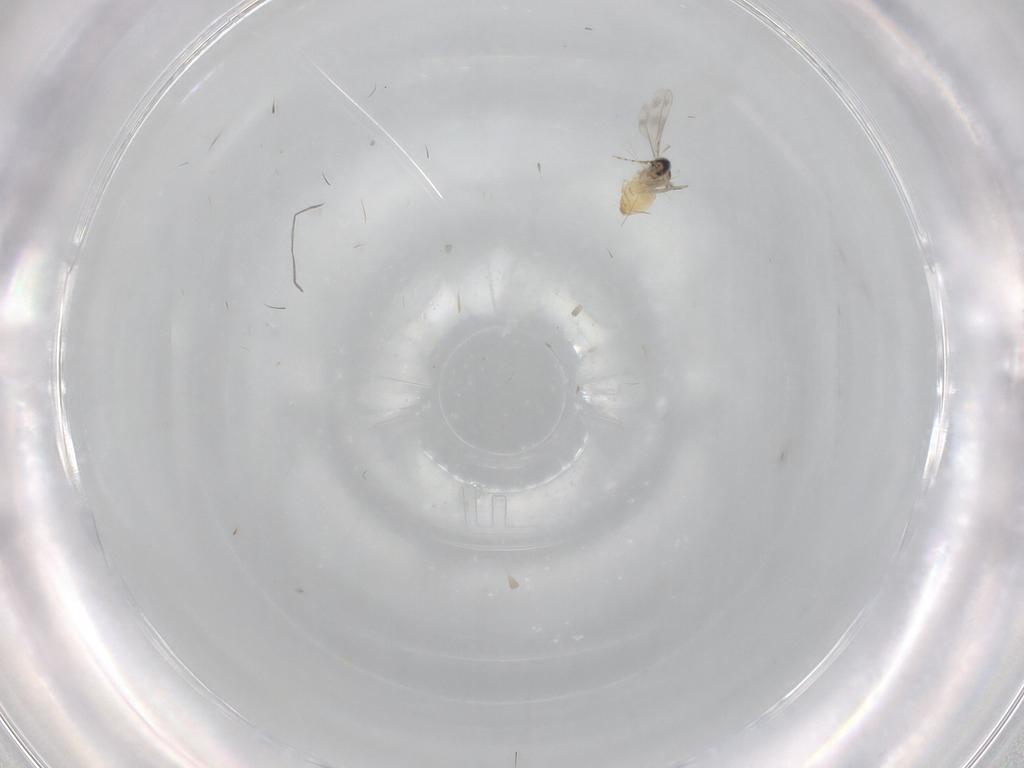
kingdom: Animalia
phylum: Arthropoda
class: Insecta
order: Diptera
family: Cecidomyiidae
